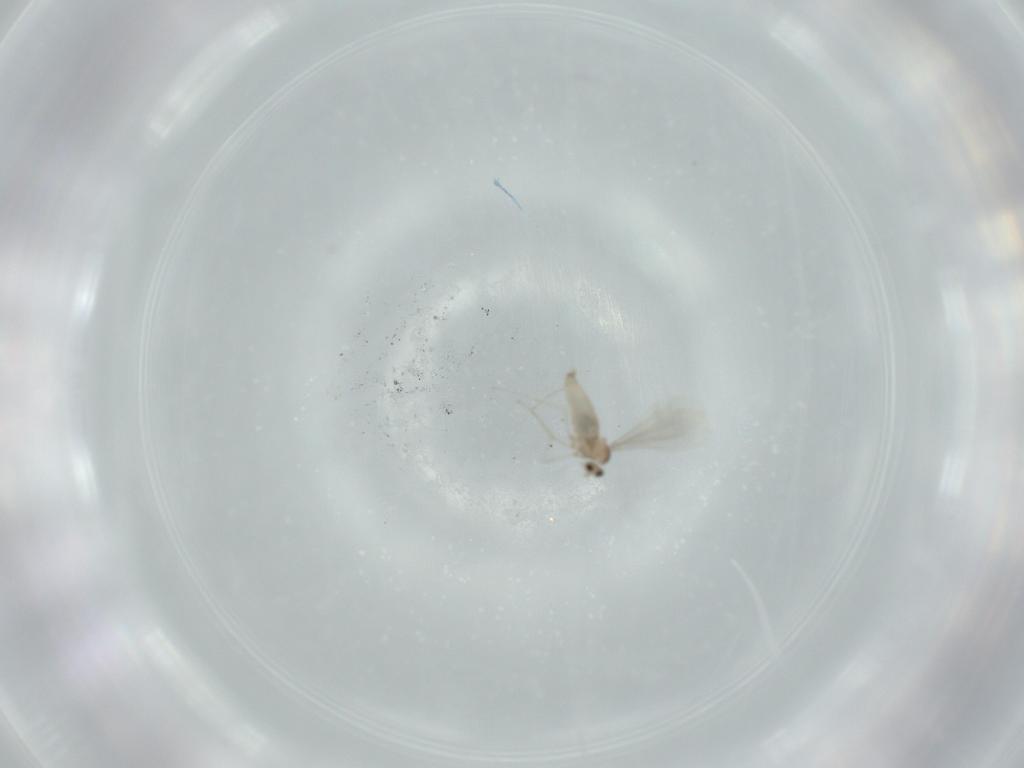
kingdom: Animalia
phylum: Arthropoda
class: Insecta
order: Diptera
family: Cecidomyiidae
